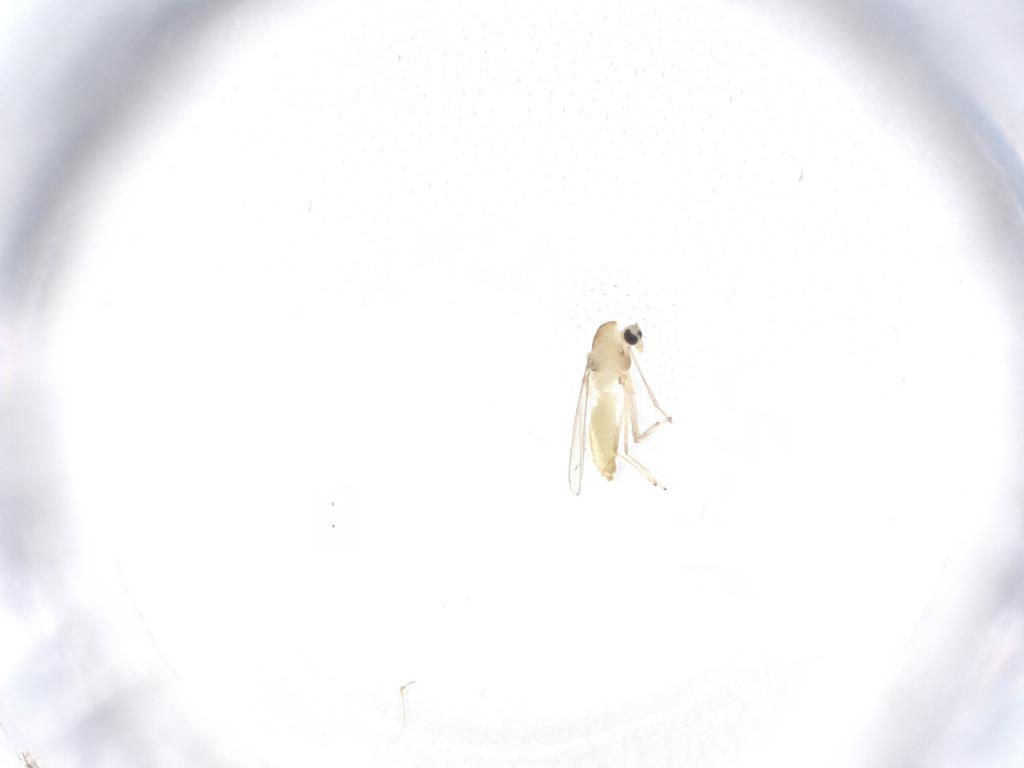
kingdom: Animalia
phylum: Arthropoda
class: Insecta
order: Diptera
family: Chironomidae
